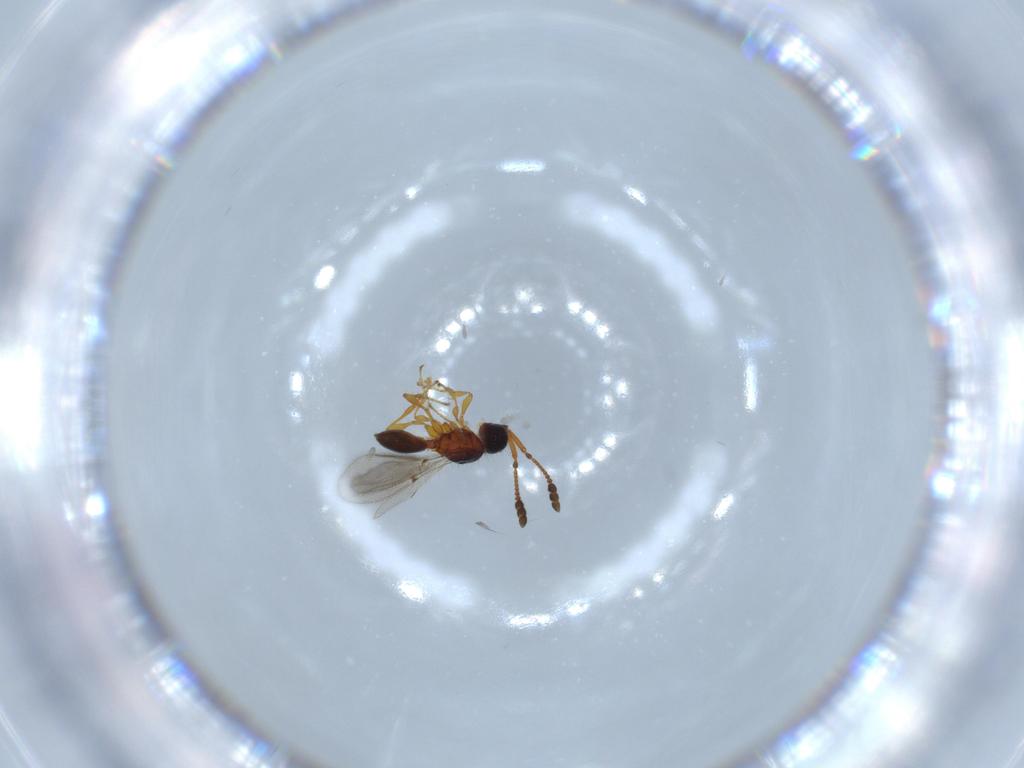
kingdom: Animalia
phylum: Arthropoda
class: Insecta
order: Hymenoptera
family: Diapriidae
